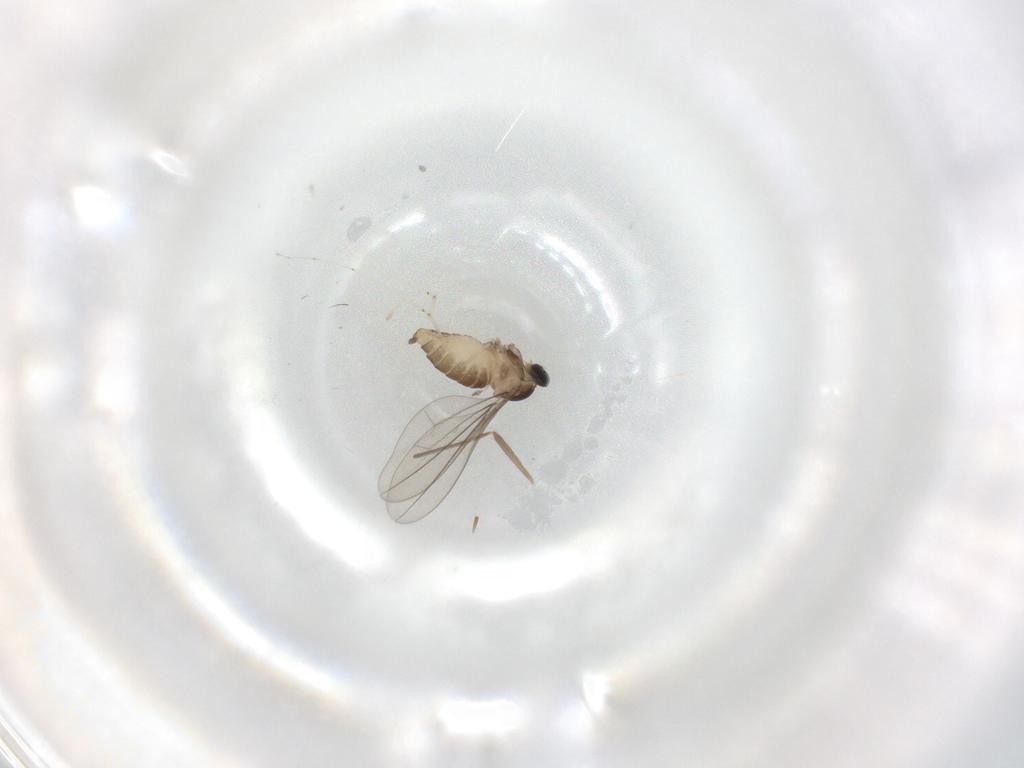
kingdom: Animalia
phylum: Arthropoda
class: Insecta
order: Diptera
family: Cecidomyiidae
